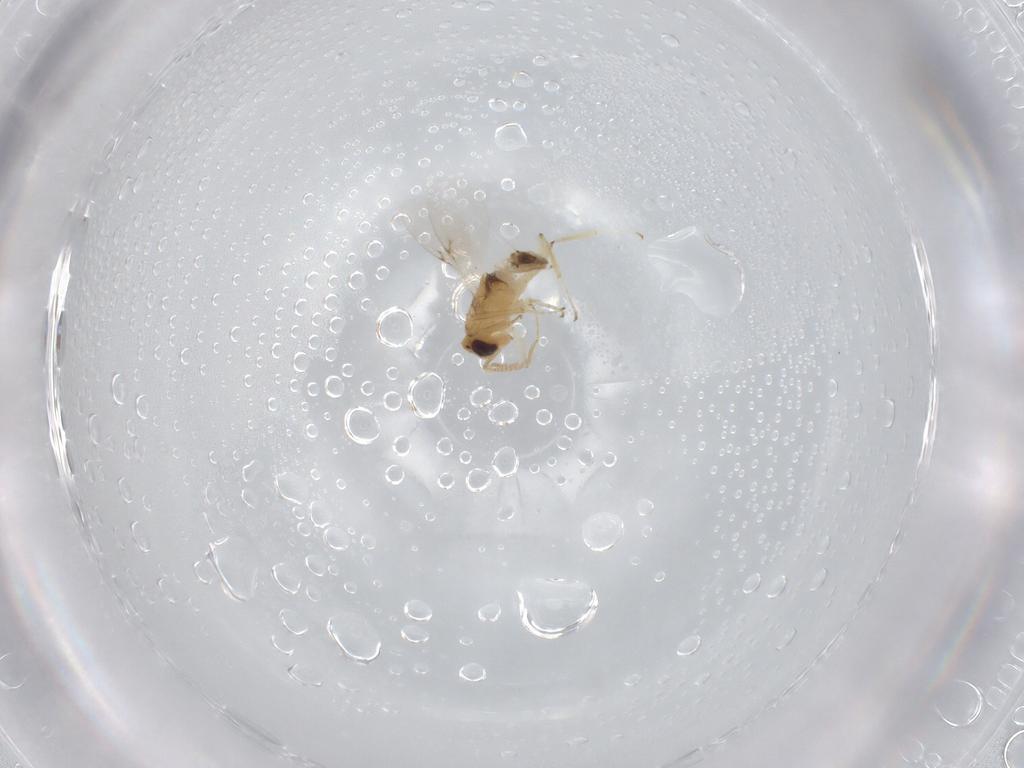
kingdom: Animalia
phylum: Arthropoda
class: Insecta
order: Hymenoptera
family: Encyrtidae
